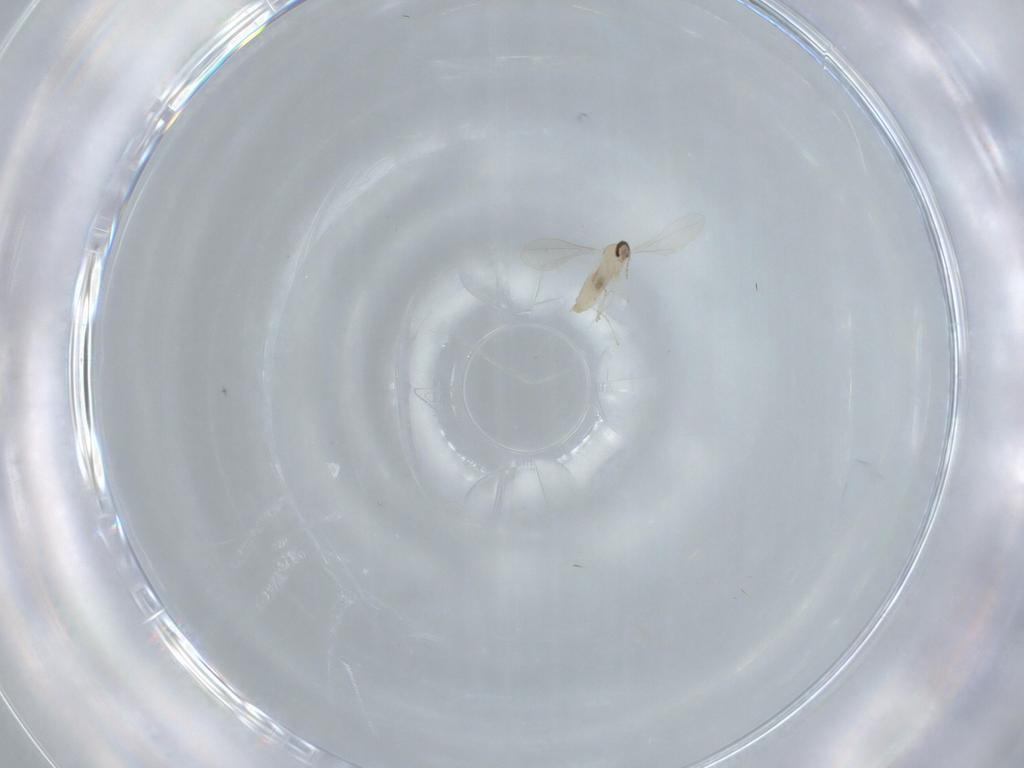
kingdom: Animalia
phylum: Arthropoda
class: Insecta
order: Diptera
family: Cecidomyiidae
